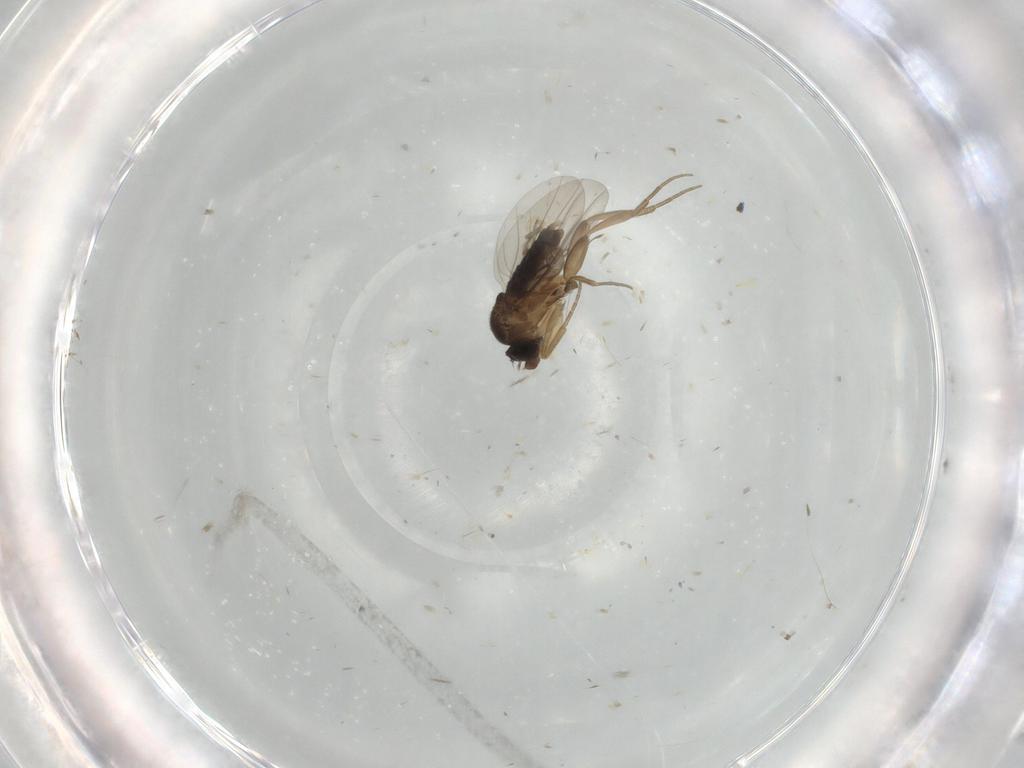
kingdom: Animalia
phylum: Arthropoda
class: Insecta
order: Diptera
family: Phoridae
